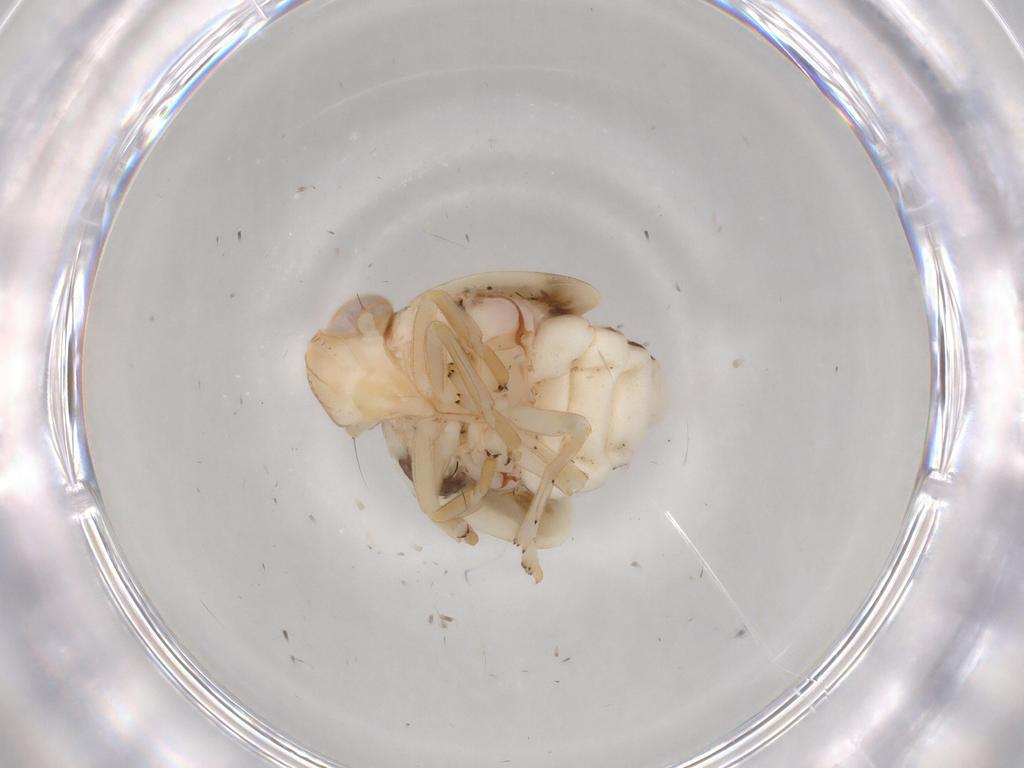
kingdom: Animalia
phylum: Arthropoda
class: Insecta
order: Hemiptera
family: Nogodinidae
